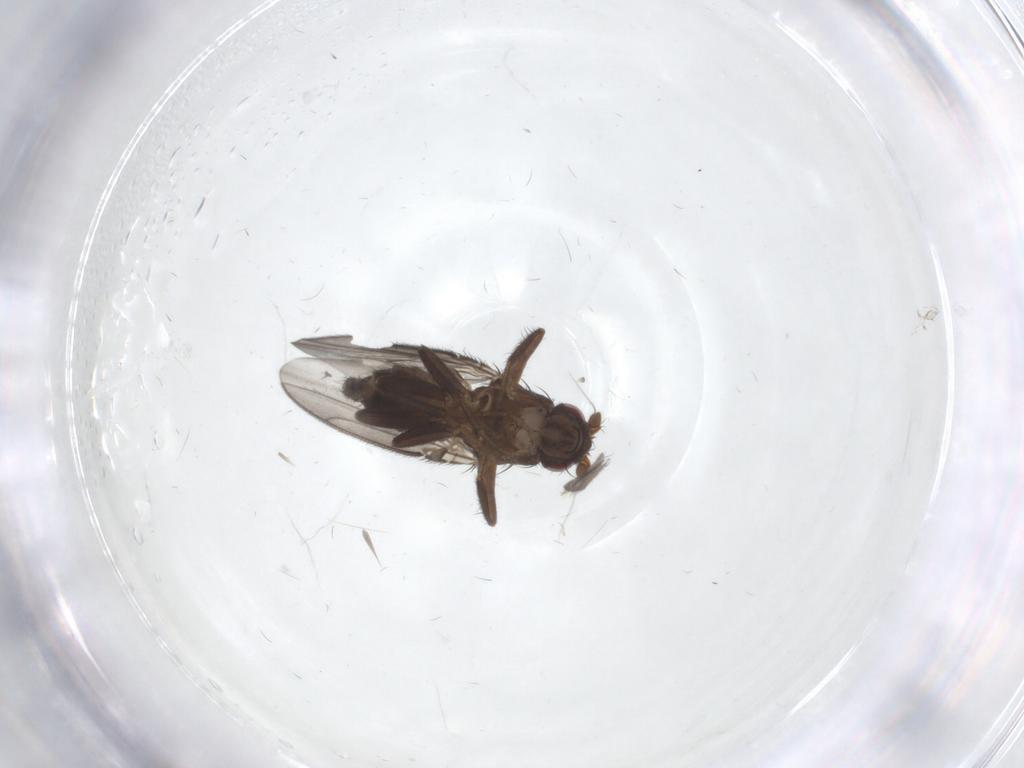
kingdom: Animalia
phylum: Arthropoda
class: Insecta
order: Diptera
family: Sphaeroceridae
